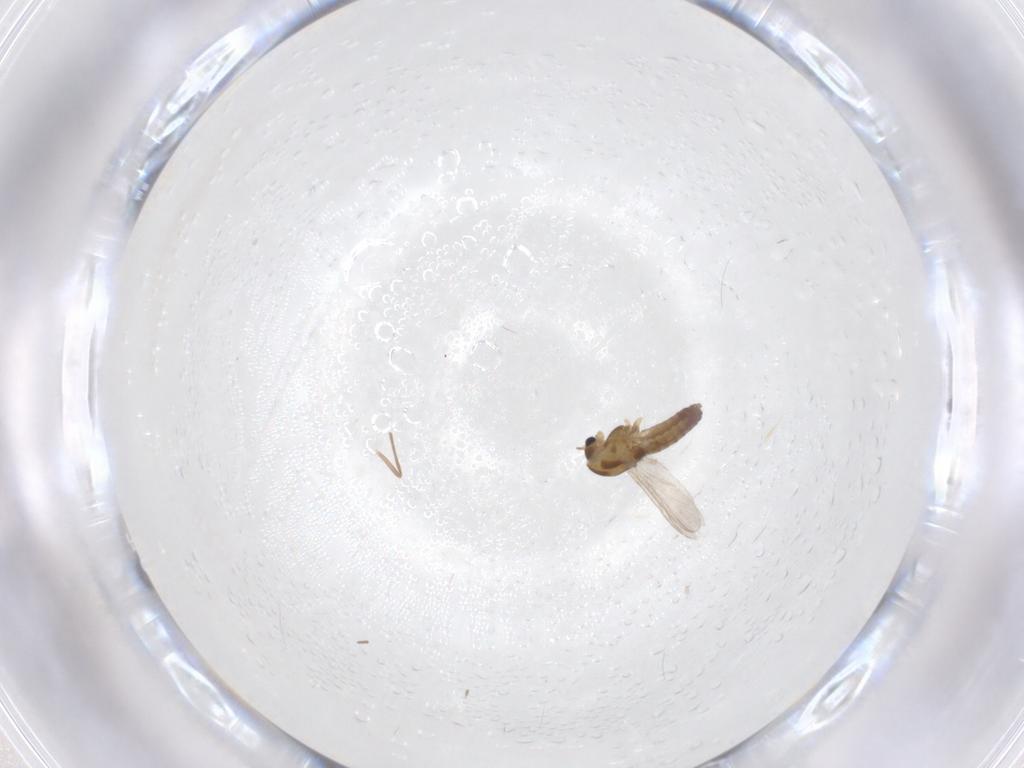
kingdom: Animalia
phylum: Arthropoda
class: Insecta
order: Diptera
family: Chironomidae
